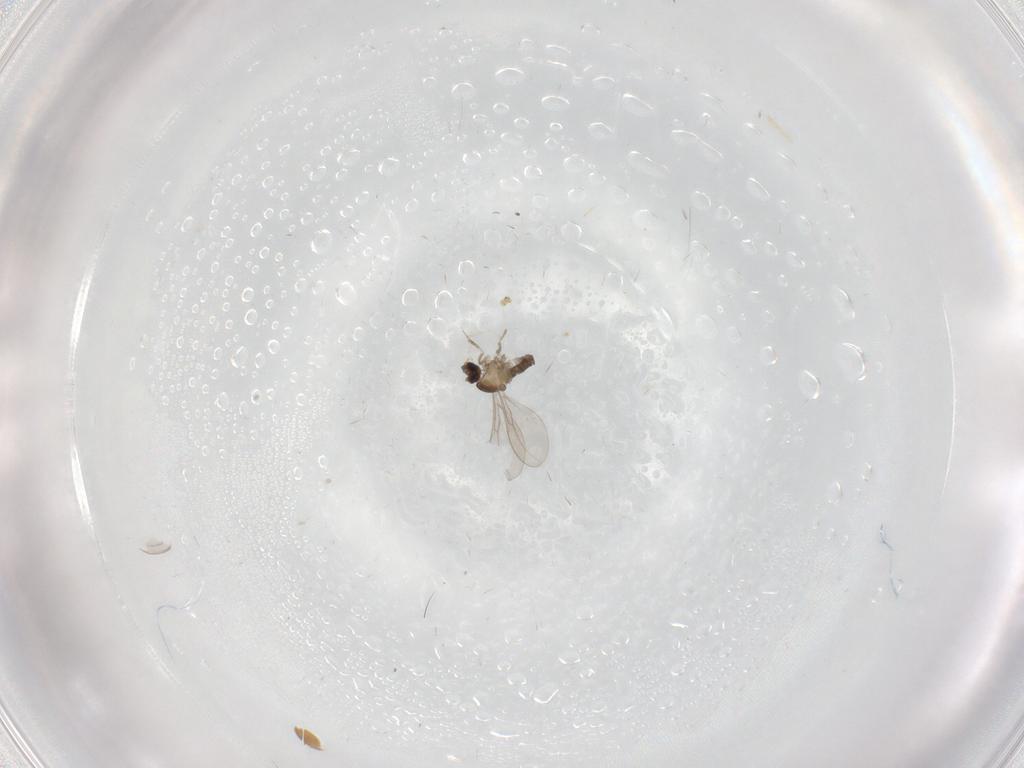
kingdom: Animalia
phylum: Arthropoda
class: Insecta
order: Diptera
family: Cecidomyiidae
